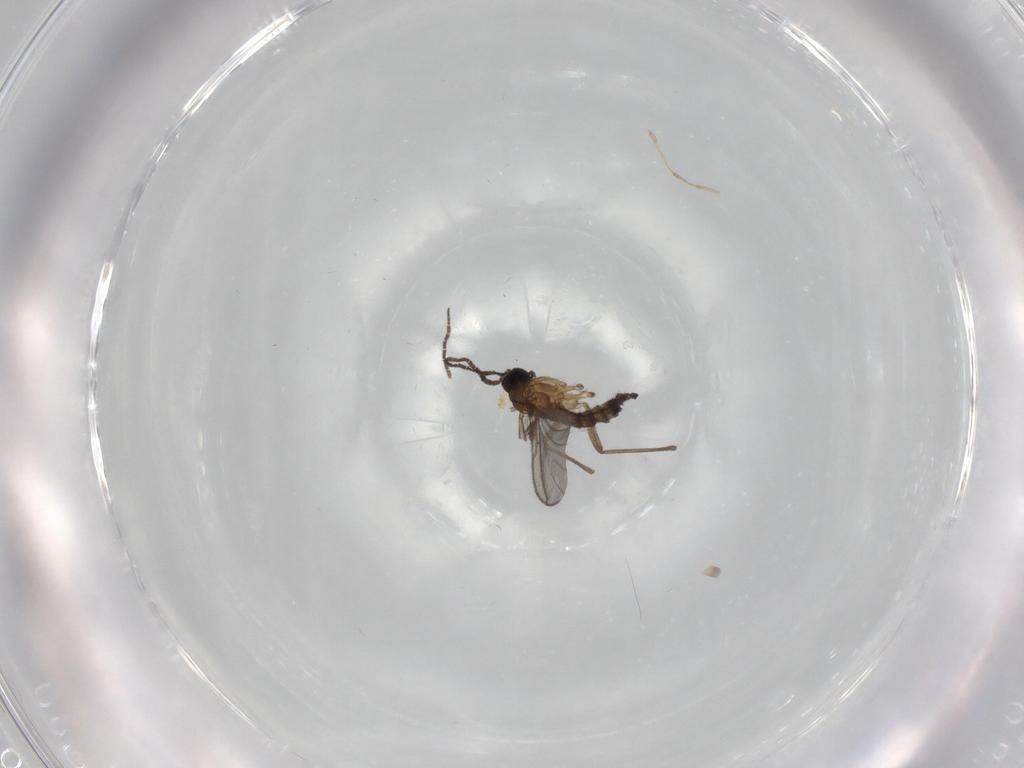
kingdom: Animalia
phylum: Arthropoda
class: Insecta
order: Diptera
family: Sciaridae
